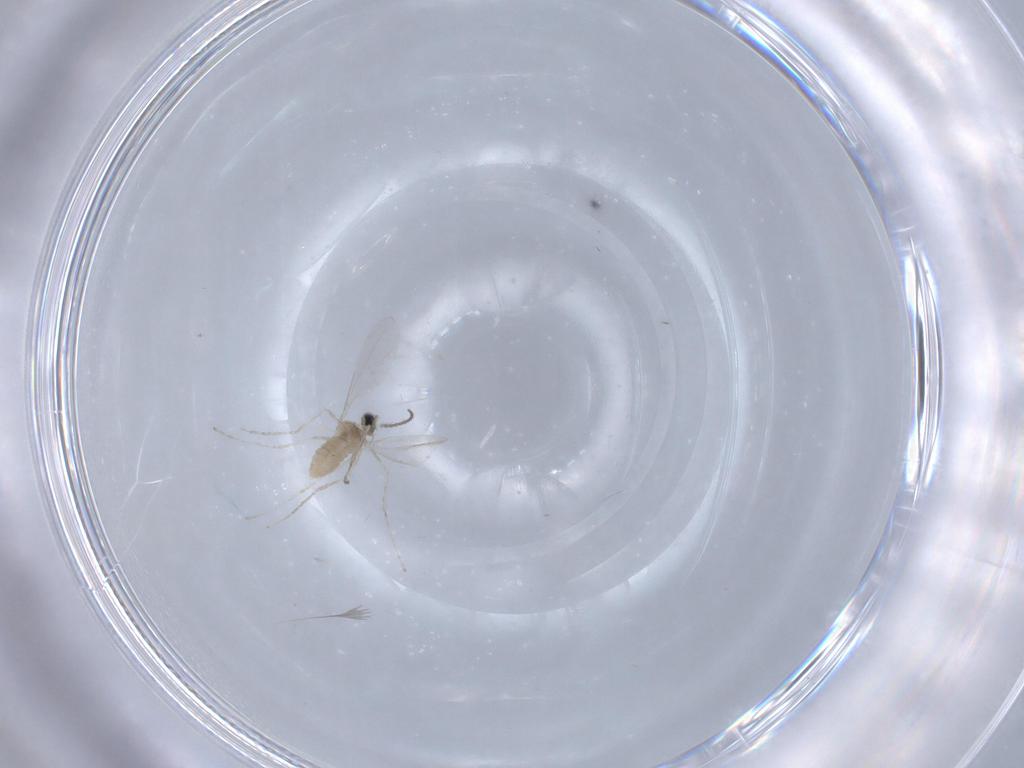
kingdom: Animalia
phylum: Arthropoda
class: Insecta
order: Diptera
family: Cecidomyiidae
